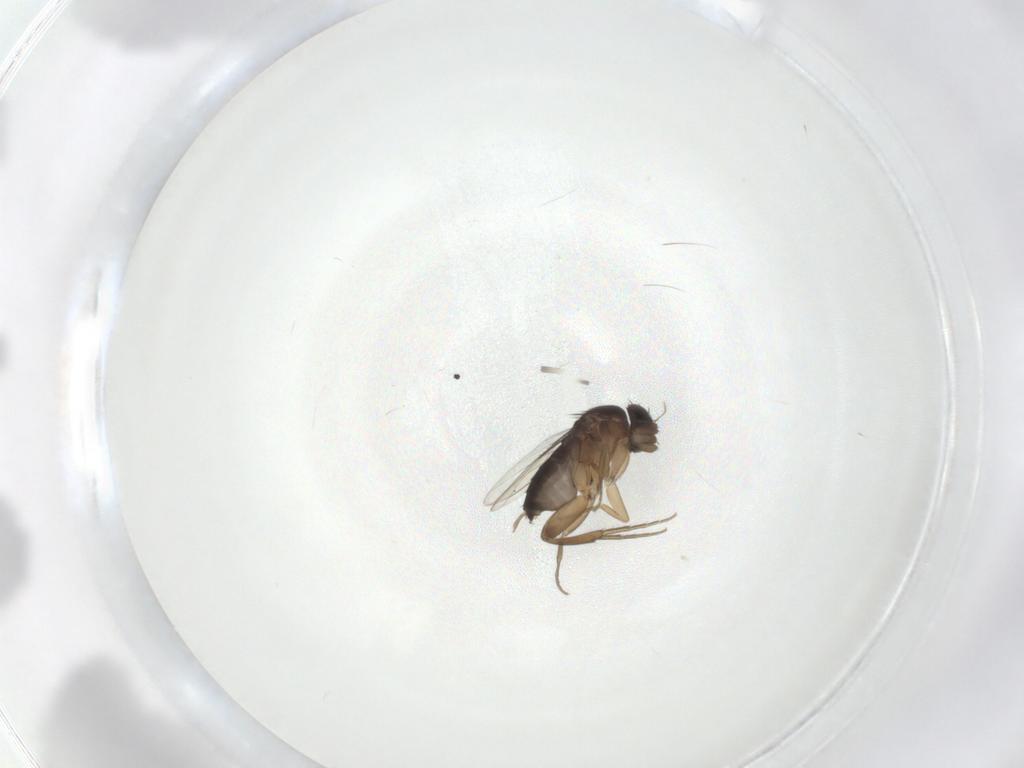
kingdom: Animalia
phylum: Arthropoda
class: Insecta
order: Diptera
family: Phoridae
